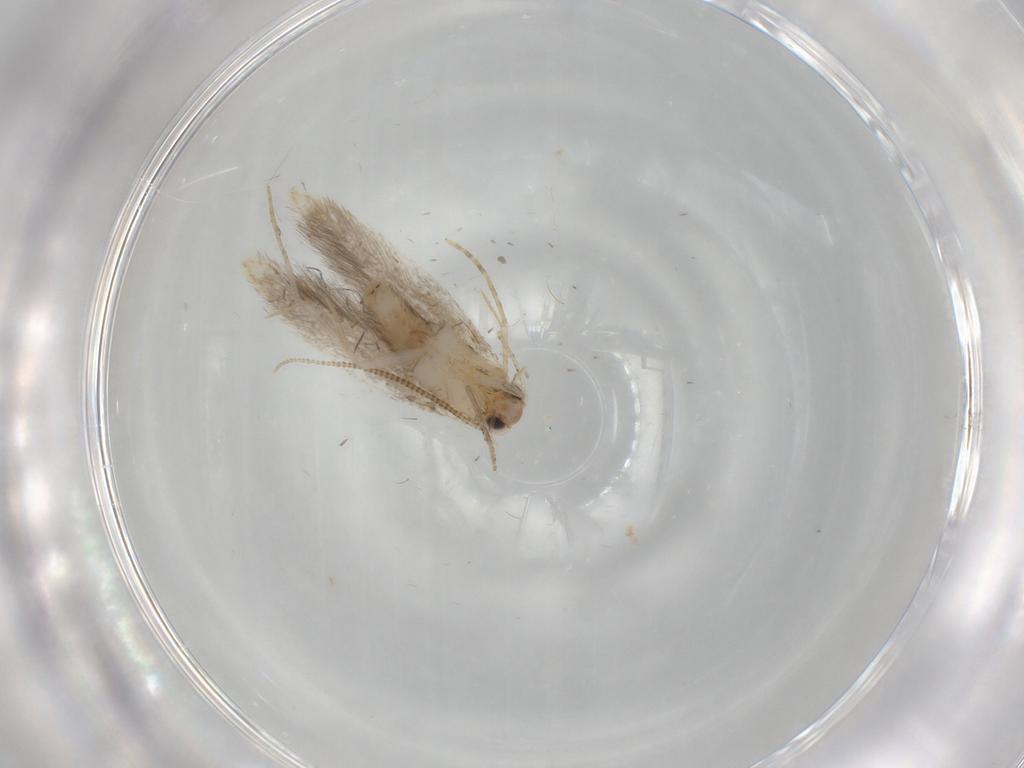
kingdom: Animalia
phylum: Arthropoda
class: Insecta
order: Lepidoptera
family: Tineidae
